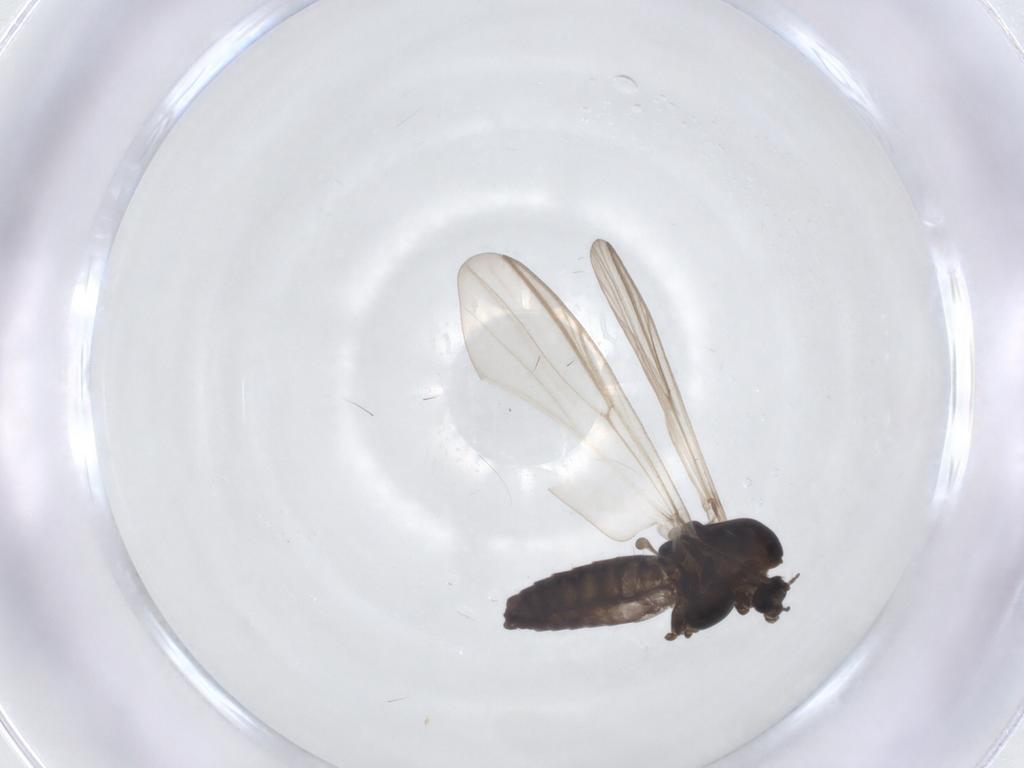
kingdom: Animalia
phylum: Arthropoda
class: Insecta
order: Diptera
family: Chironomidae
